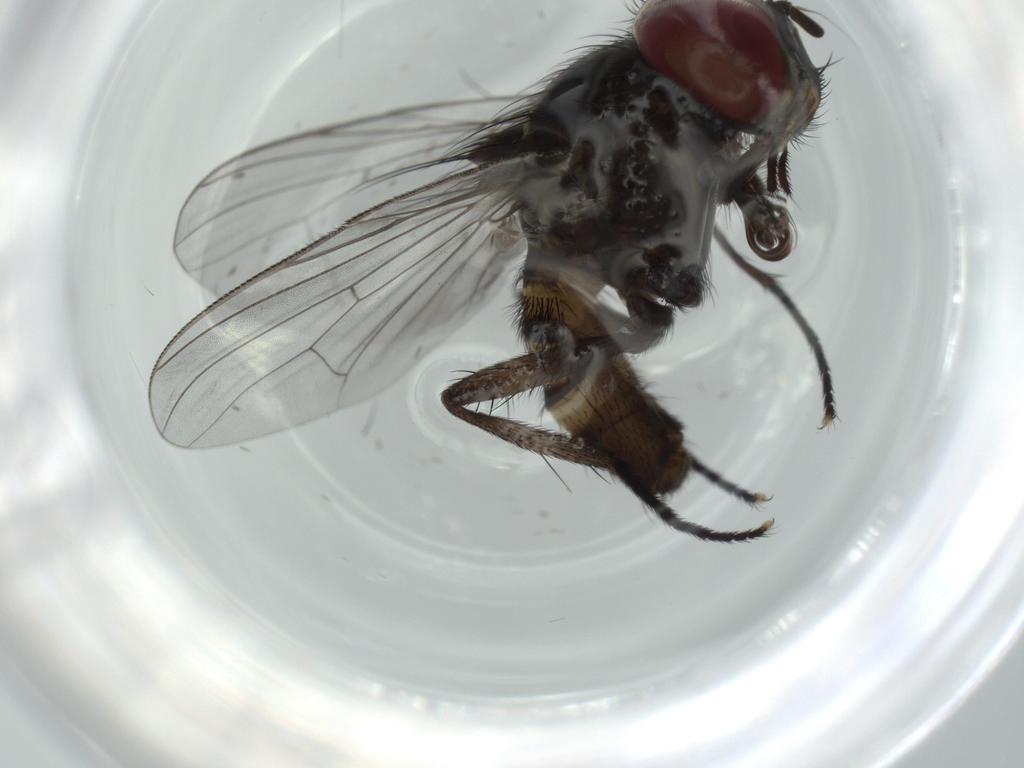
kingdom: Animalia
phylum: Arthropoda
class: Insecta
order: Diptera
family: Fannia
